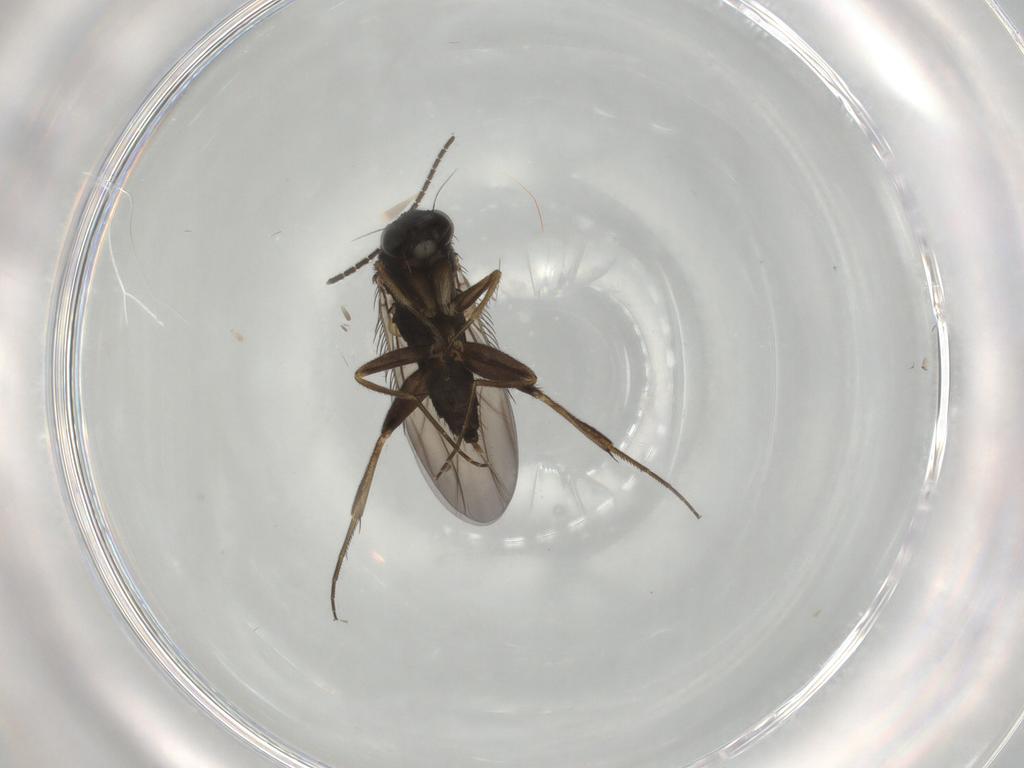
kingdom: Animalia
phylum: Arthropoda
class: Insecta
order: Diptera
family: Phoridae
